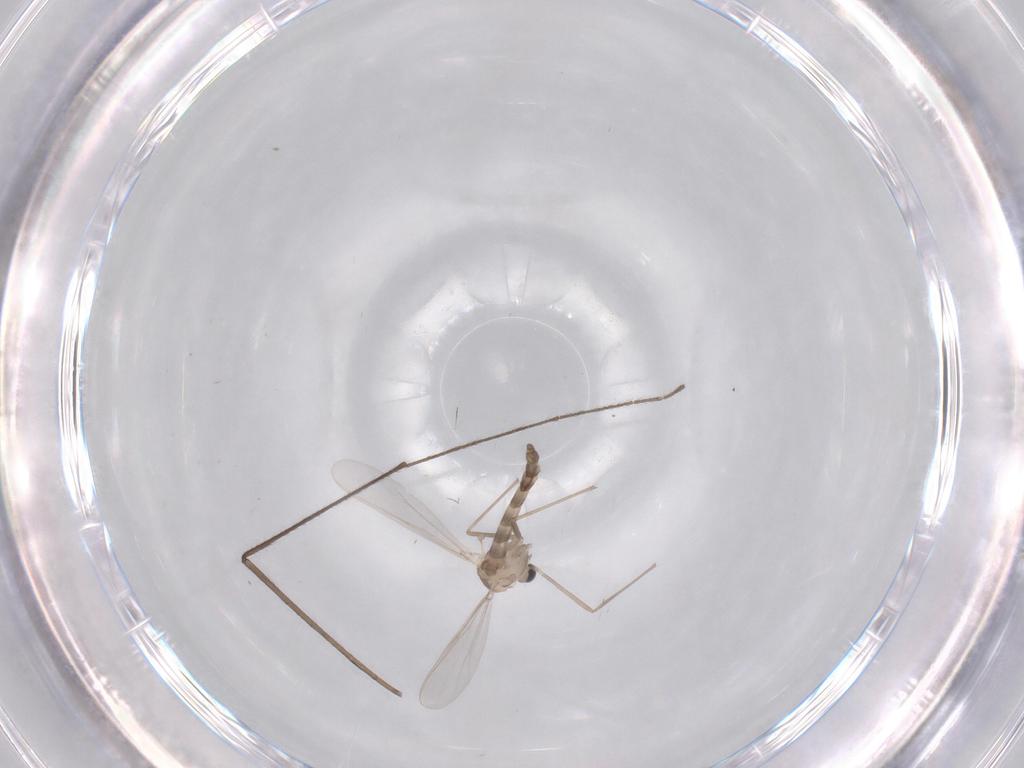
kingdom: Animalia
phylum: Arthropoda
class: Insecta
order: Diptera
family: Chironomidae
